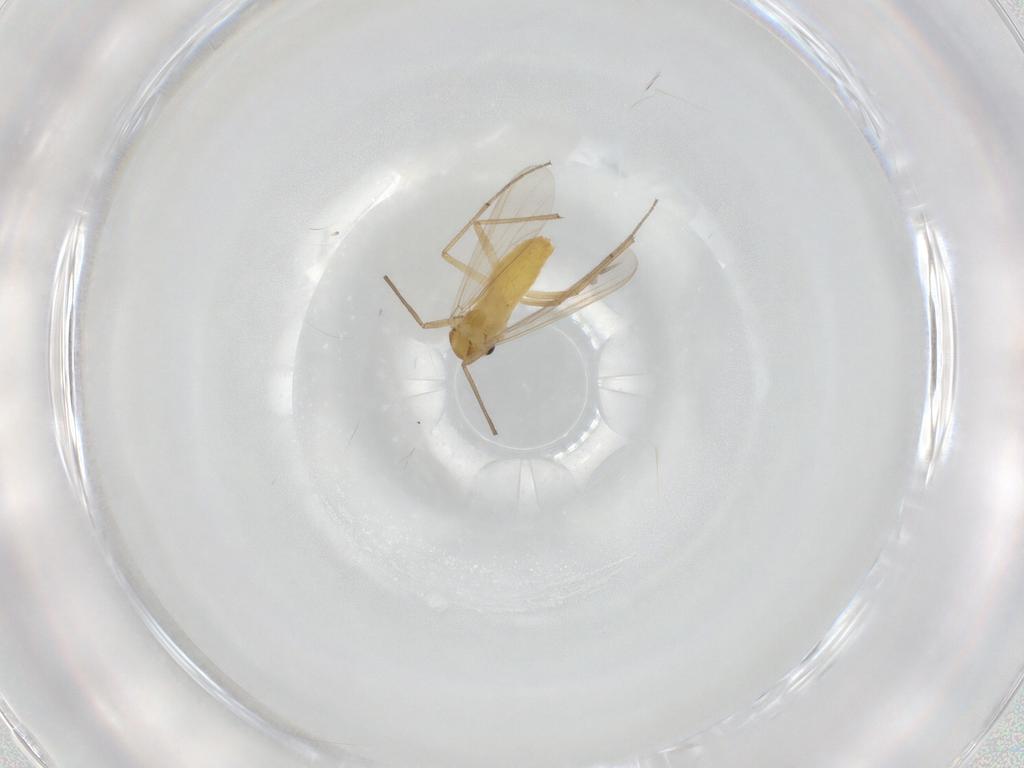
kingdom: Animalia
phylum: Arthropoda
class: Insecta
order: Diptera
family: Chironomidae
